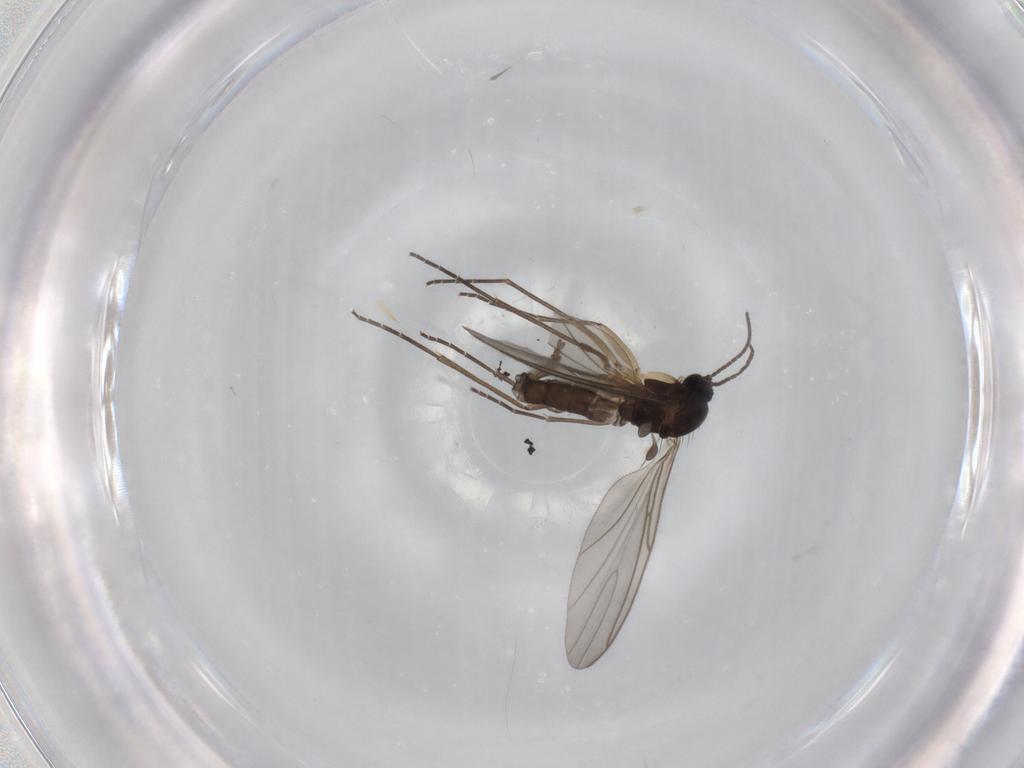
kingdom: Animalia
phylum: Arthropoda
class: Insecta
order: Diptera
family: Sciaridae
